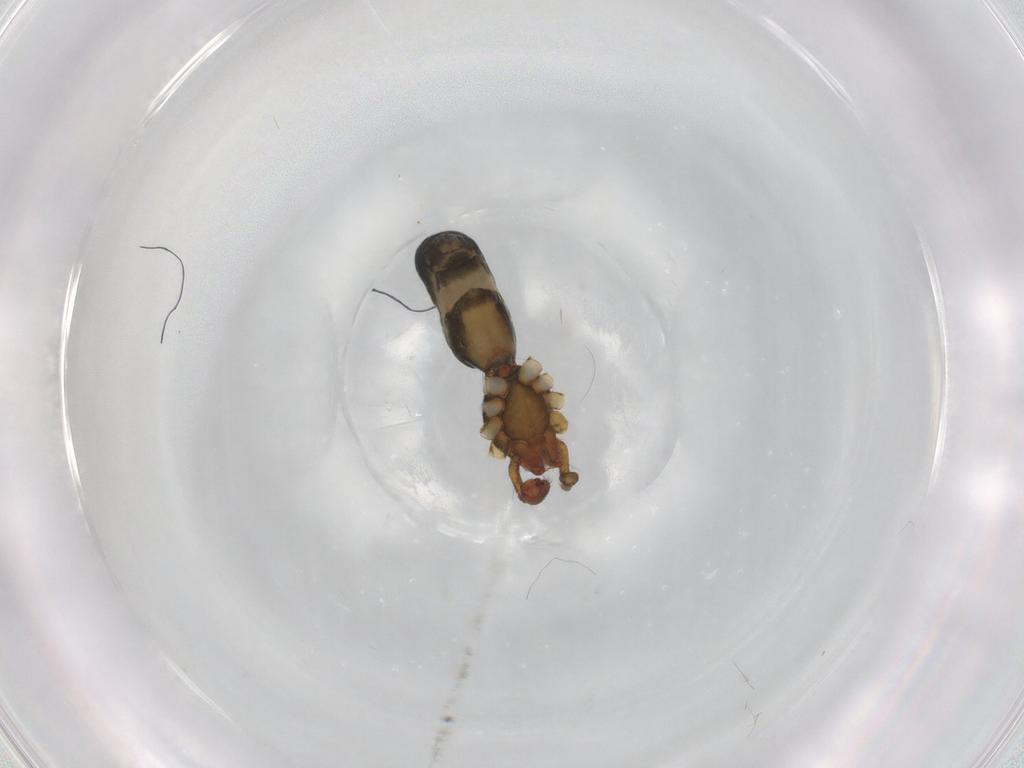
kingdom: Animalia
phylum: Arthropoda
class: Arachnida
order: Araneae
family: Theridiidae
